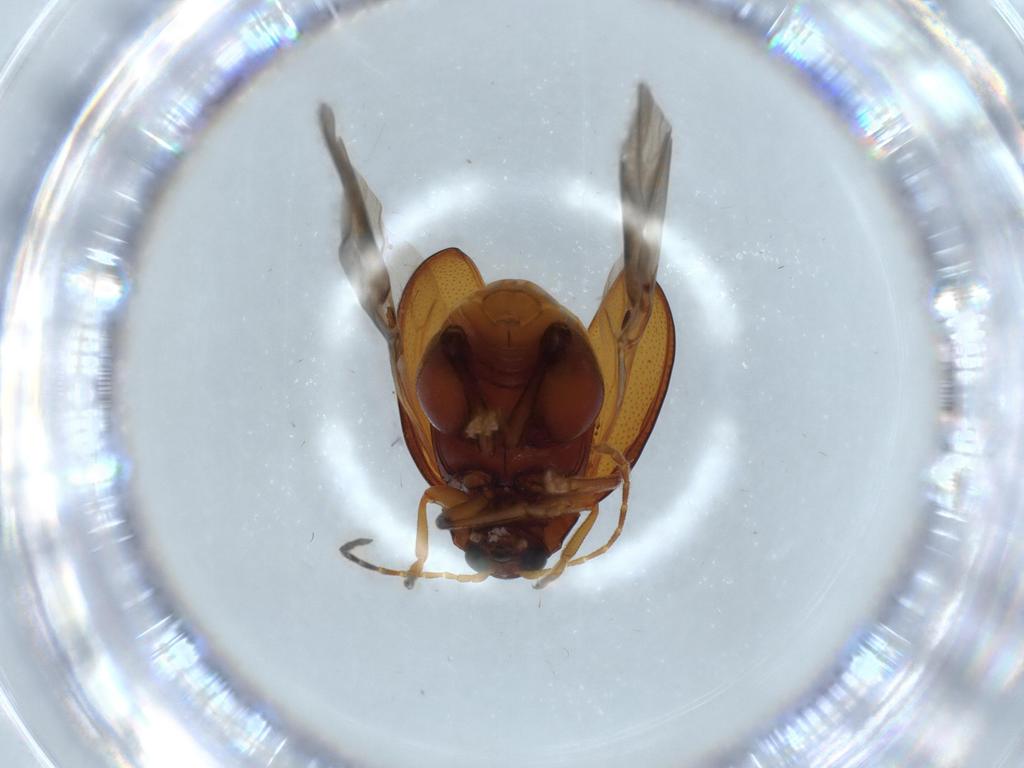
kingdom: Animalia
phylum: Arthropoda
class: Insecta
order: Coleoptera
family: Chrysomelidae
